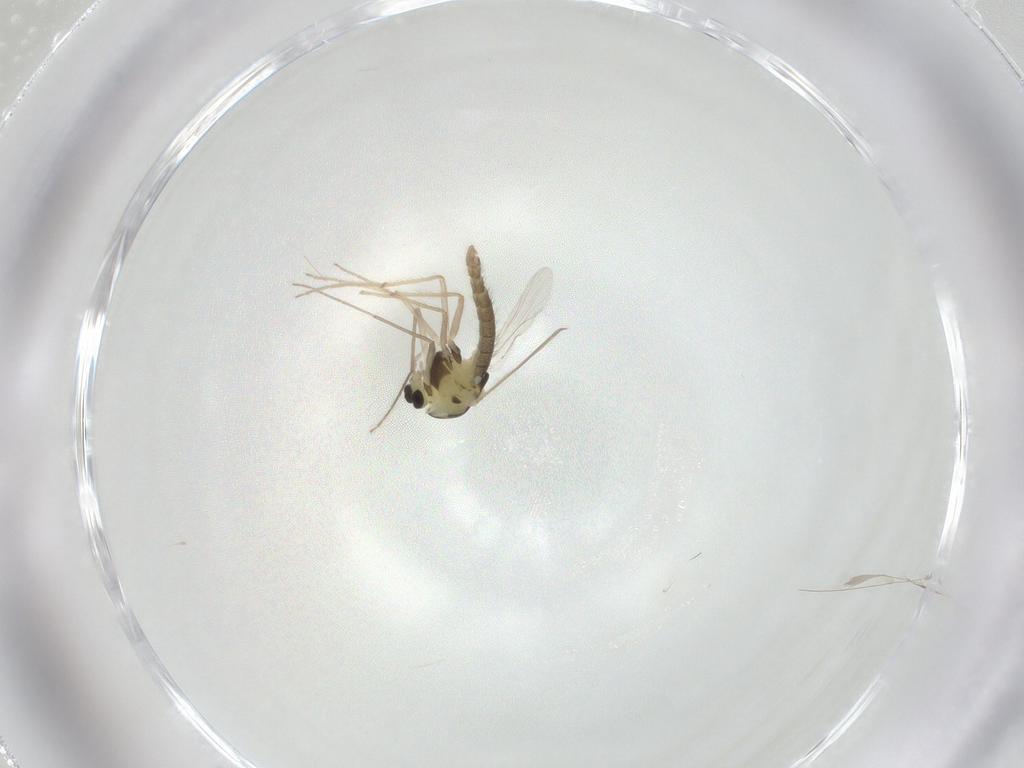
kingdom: Animalia
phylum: Arthropoda
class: Insecta
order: Diptera
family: Chironomidae
